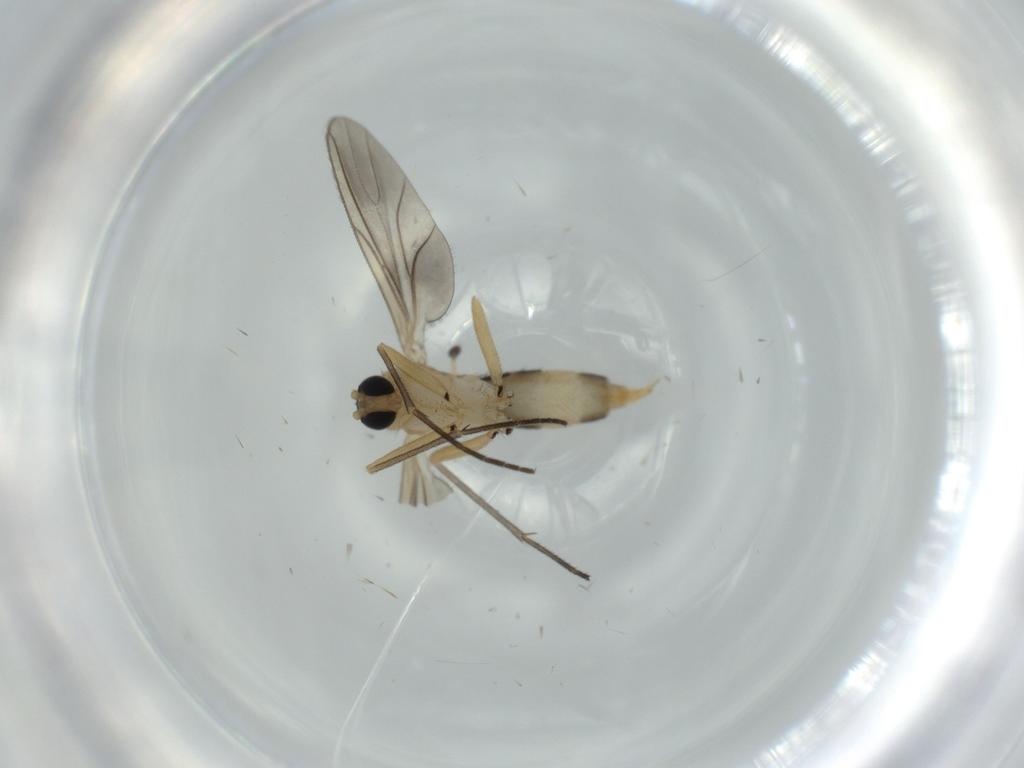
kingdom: Animalia
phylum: Arthropoda
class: Insecta
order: Diptera
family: Sciaridae
